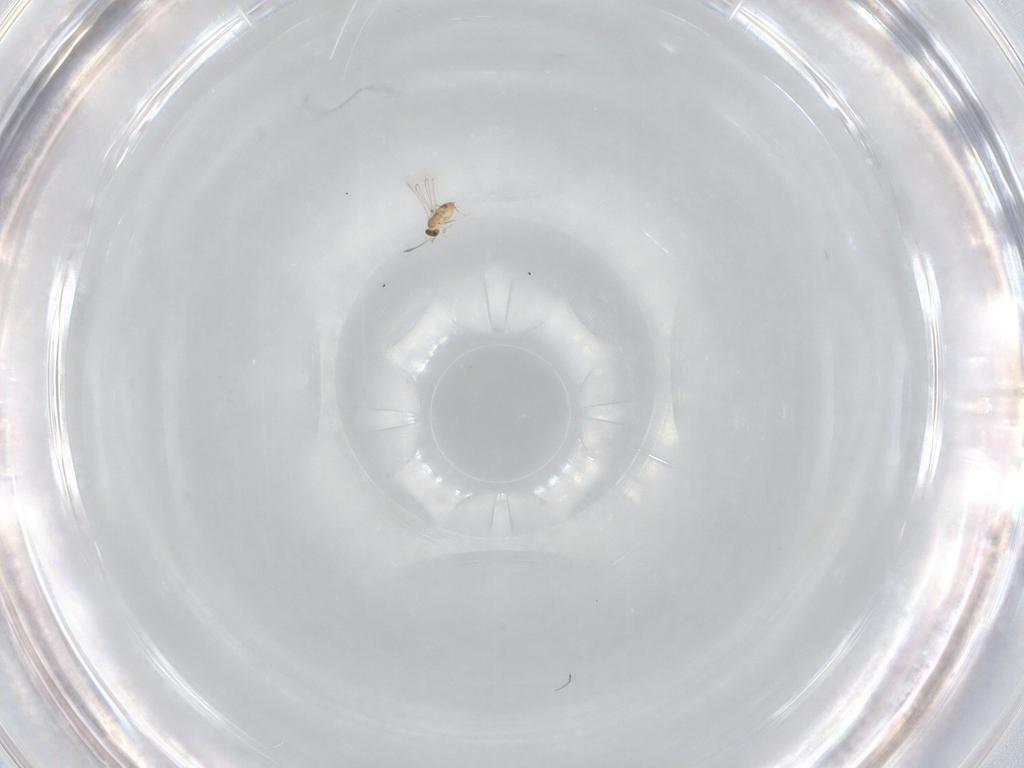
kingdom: Animalia
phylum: Arthropoda
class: Insecta
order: Hymenoptera
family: Mymaridae
